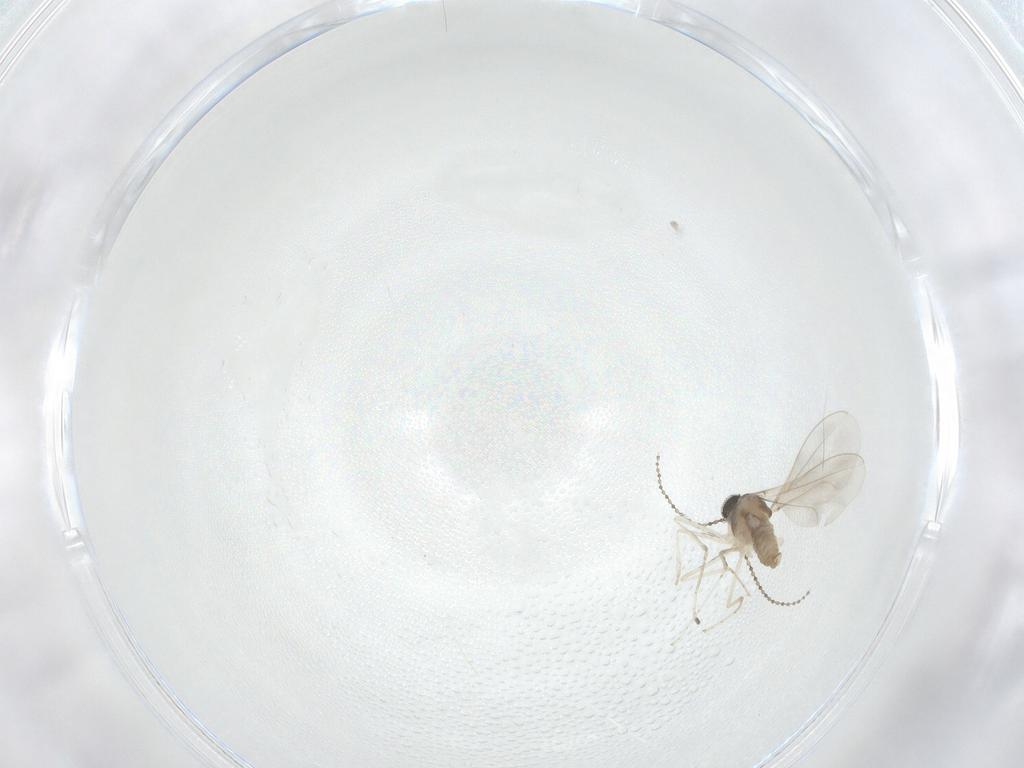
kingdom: Animalia
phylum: Arthropoda
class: Insecta
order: Diptera
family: Cecidomyiidae
